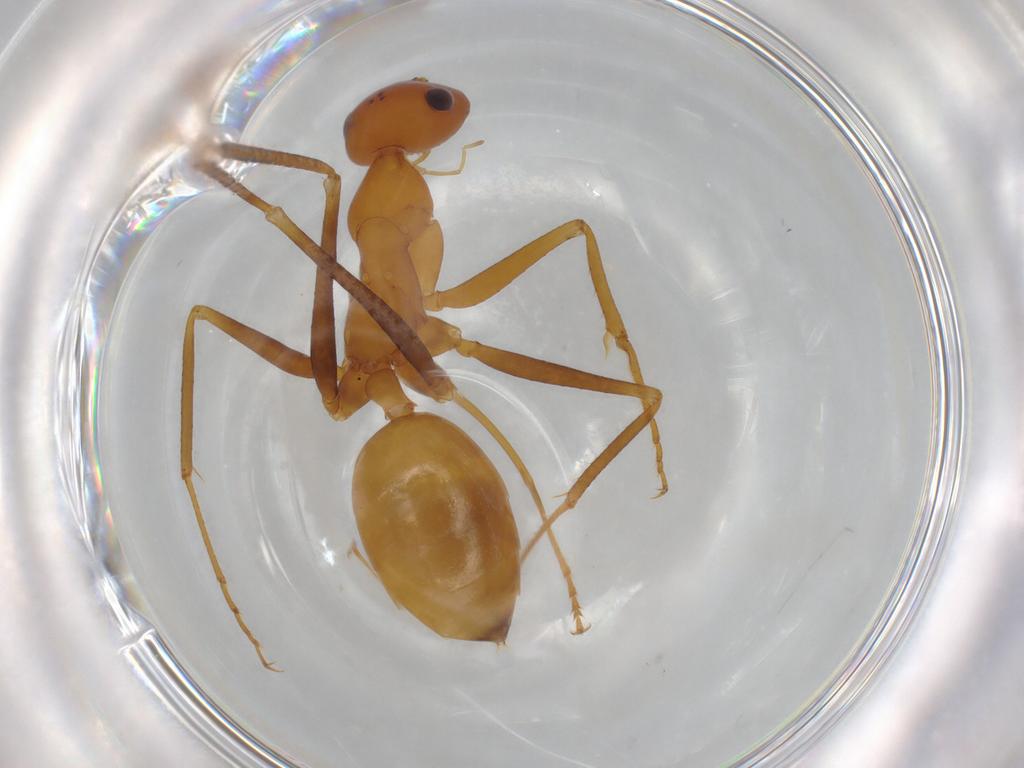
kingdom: Animalia
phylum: Arthropoda
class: Insecta
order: Hymenoptera
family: Formicidae
